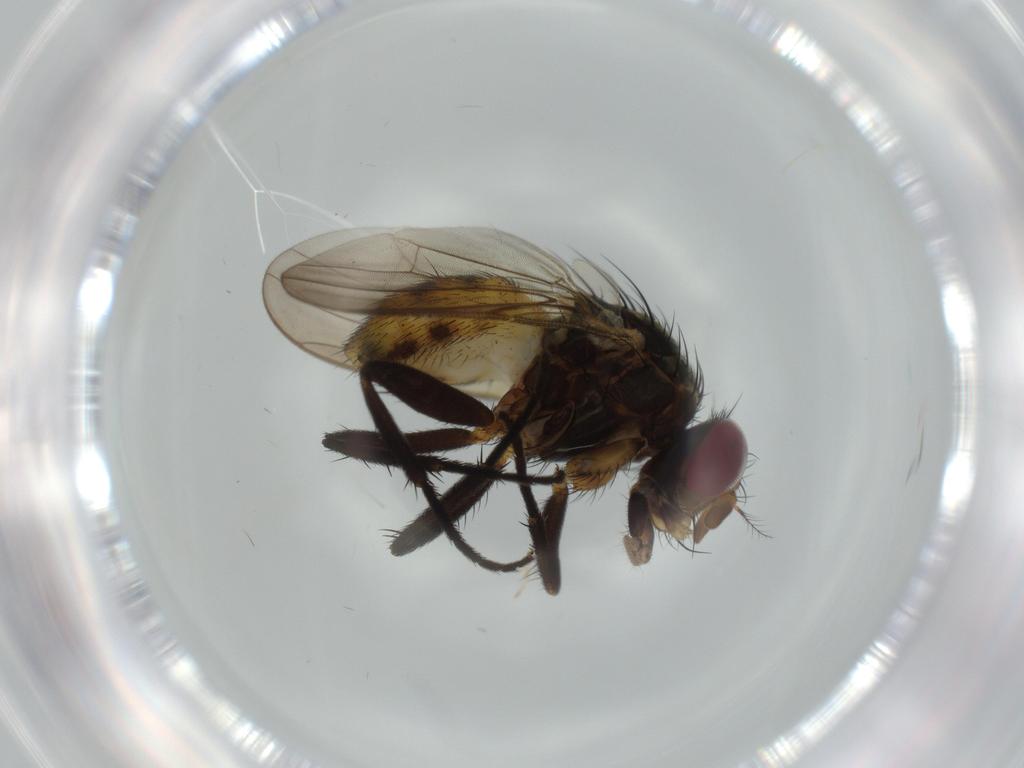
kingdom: Animalia
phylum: Arthropoda
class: Insecta
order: Diptera
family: Anthomyiidae
